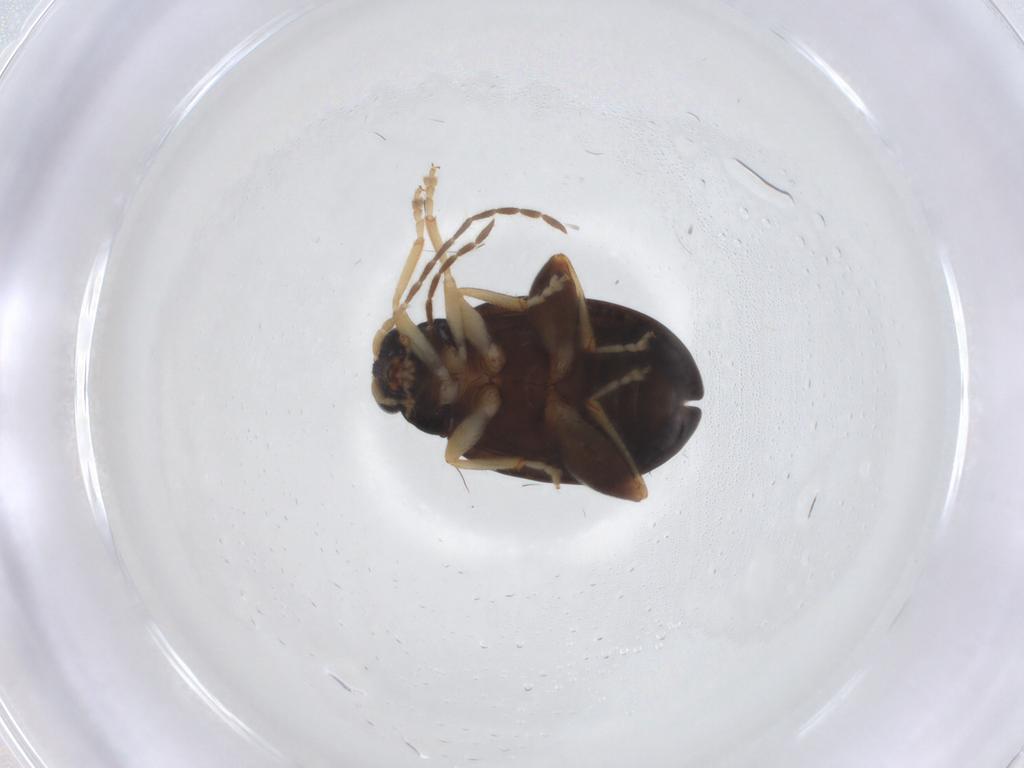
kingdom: Animalia
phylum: Arthropoda
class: Insecta
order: Coleoptera
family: Chrysomelidae
